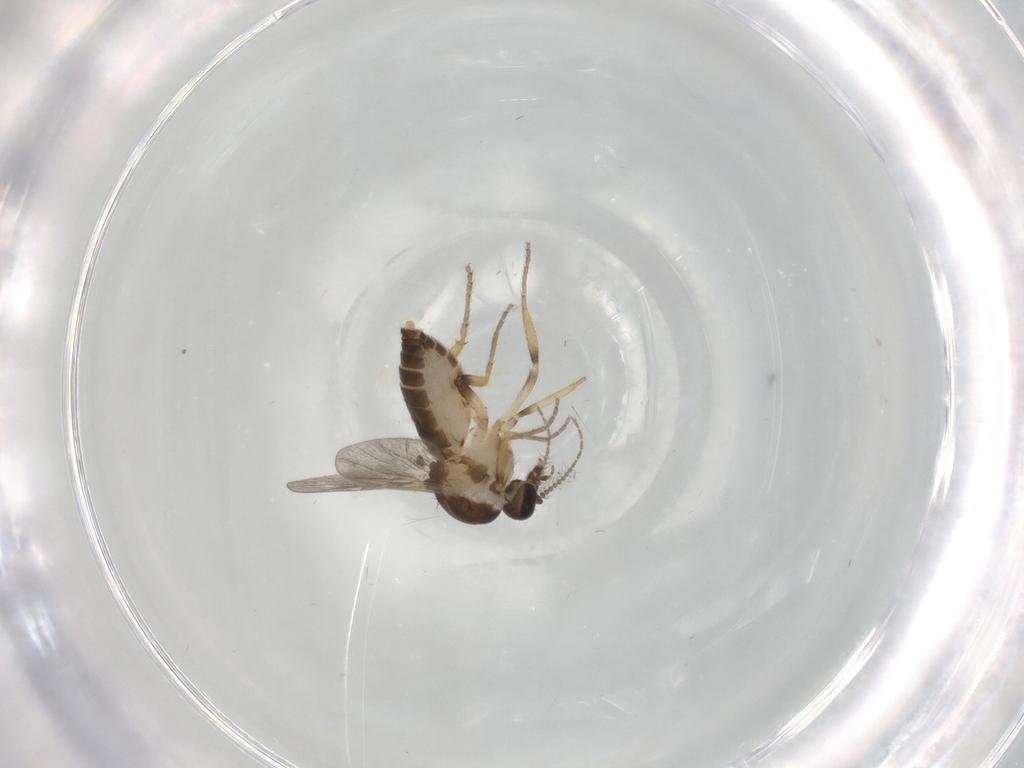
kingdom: Animalia
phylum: Arthropoda
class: Insecta
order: Diptera
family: Ceratopogonidae
